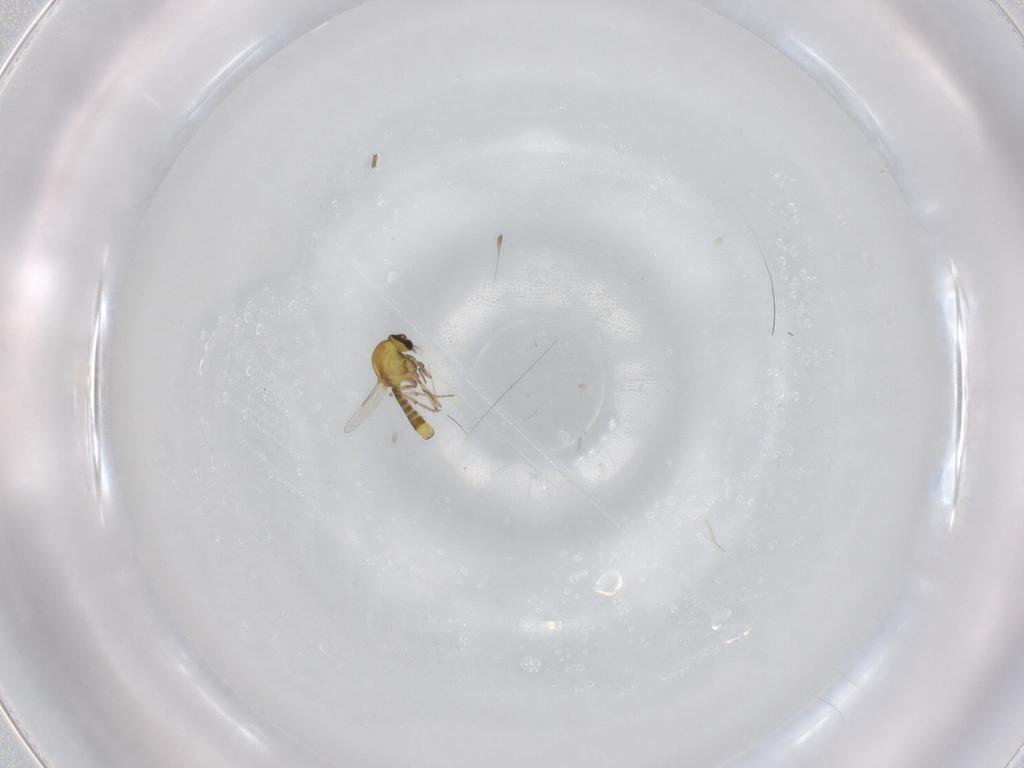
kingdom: Animalia
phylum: Arthropoda
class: Insecta
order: Diptera
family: Ceratopogonidae
